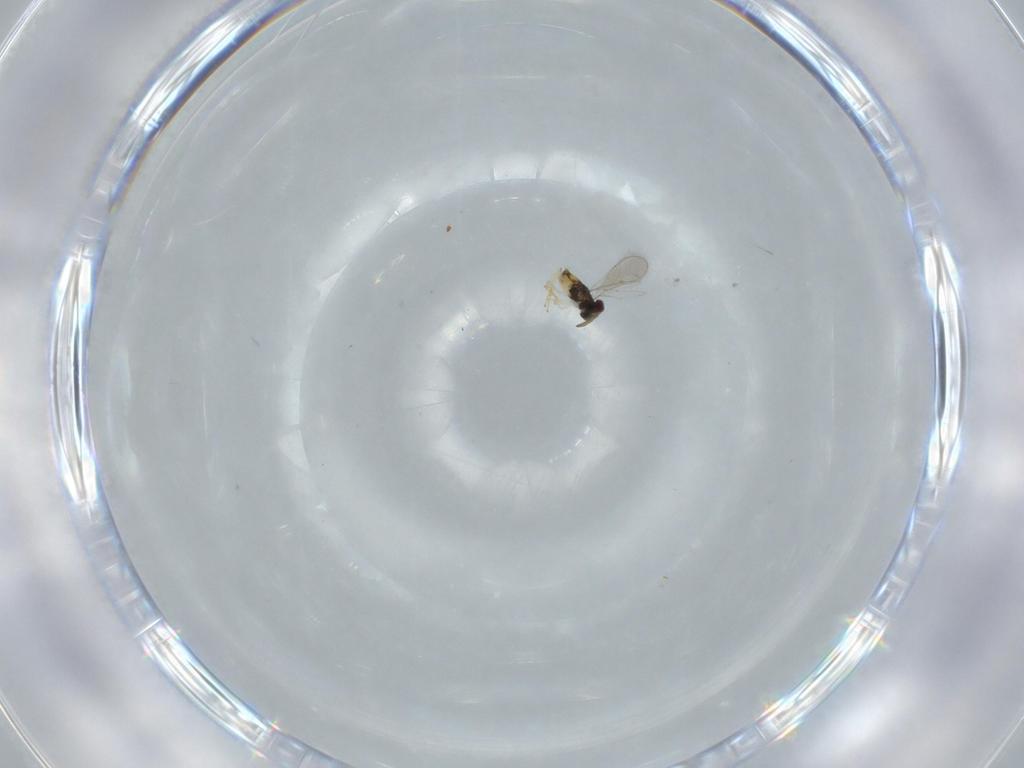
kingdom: Animalia
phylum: Arthropoda
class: Insecta
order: Hymenoptera
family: Aphelinidae
